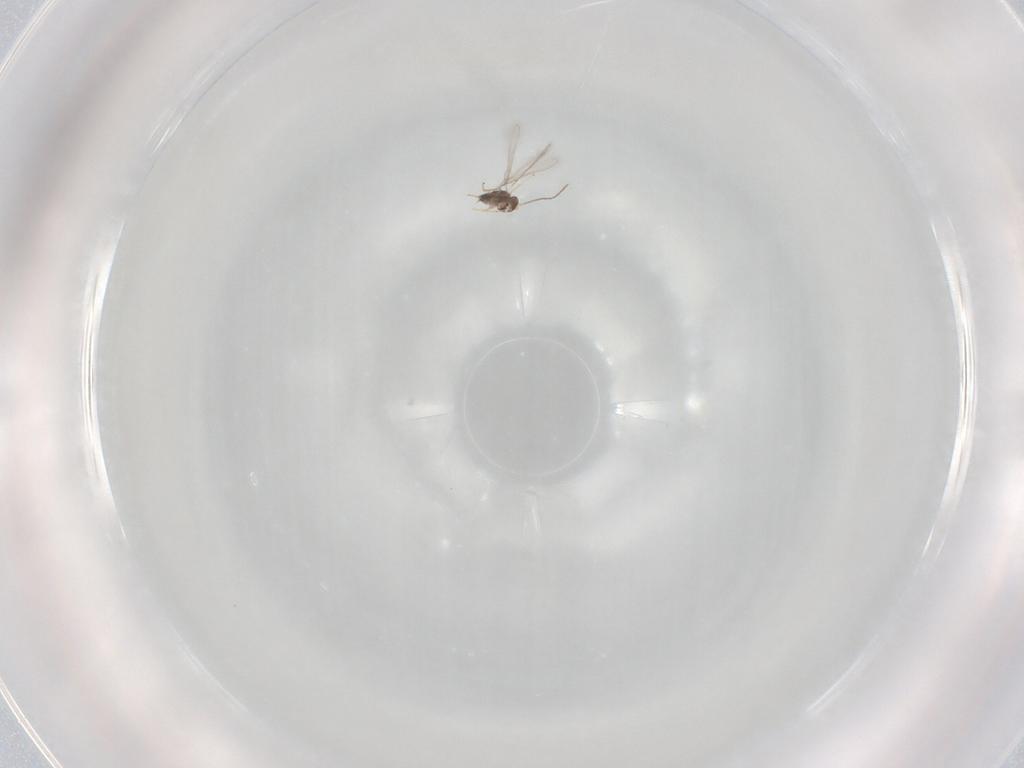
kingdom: Animalia
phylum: Arthropoda
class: Insecta
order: Hymenoptera
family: Mymaridae
